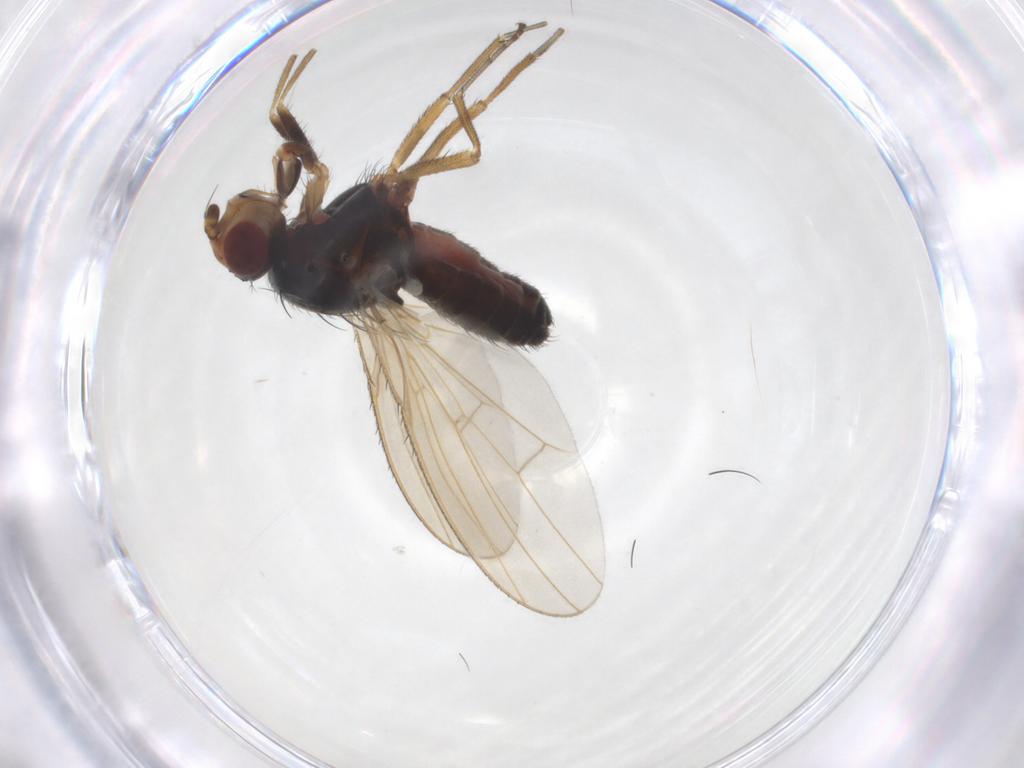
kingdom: Animalia
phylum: Arthropoda
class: Insecta
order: Diptera
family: Heleomyzidae
